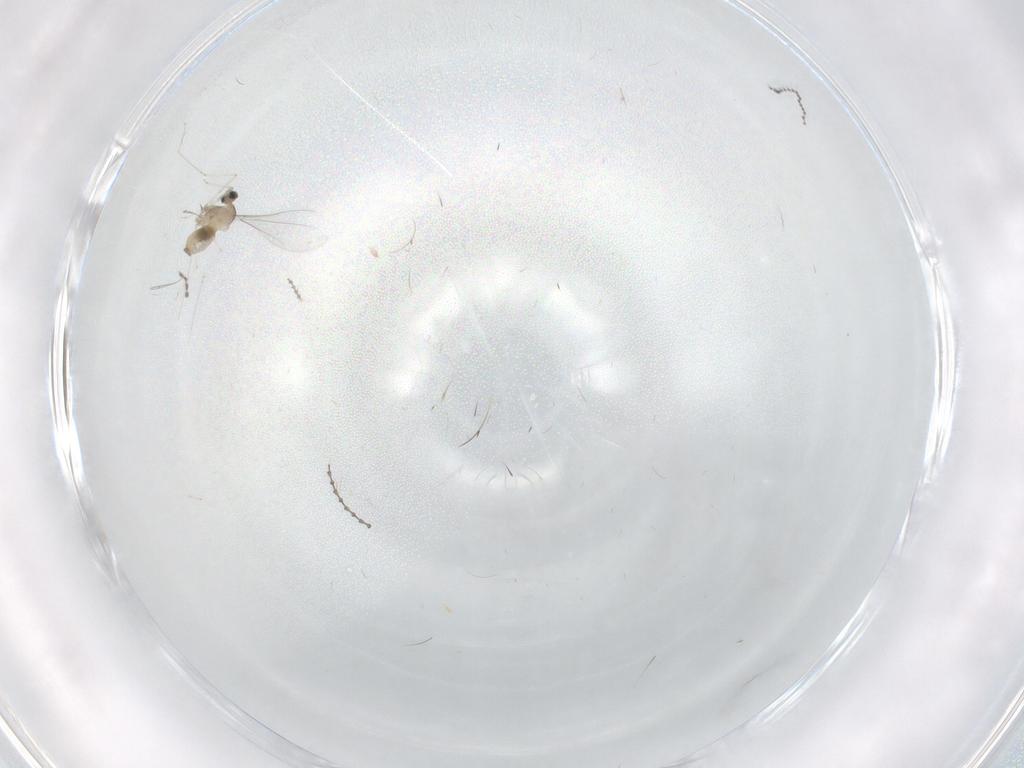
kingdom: Animalia
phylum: Arthropoda
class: Insecta
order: Diptera
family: Cecidomyiidae
